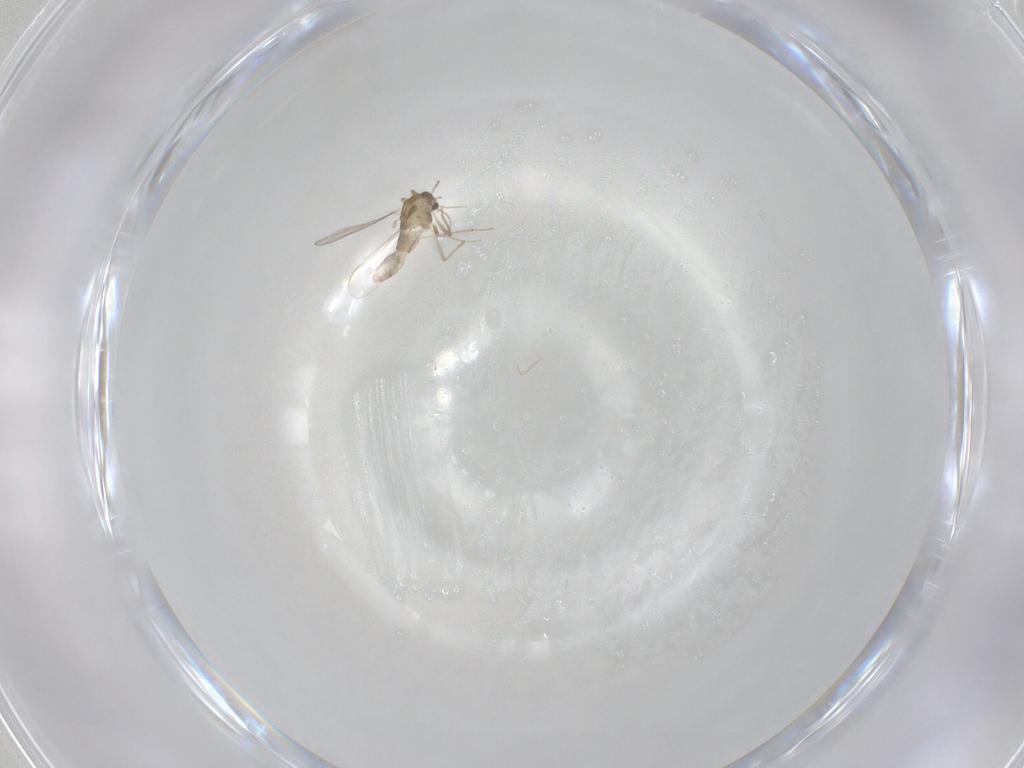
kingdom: Animalia
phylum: Arthropoda
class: Insecta
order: Diptera
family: Chironomidae
